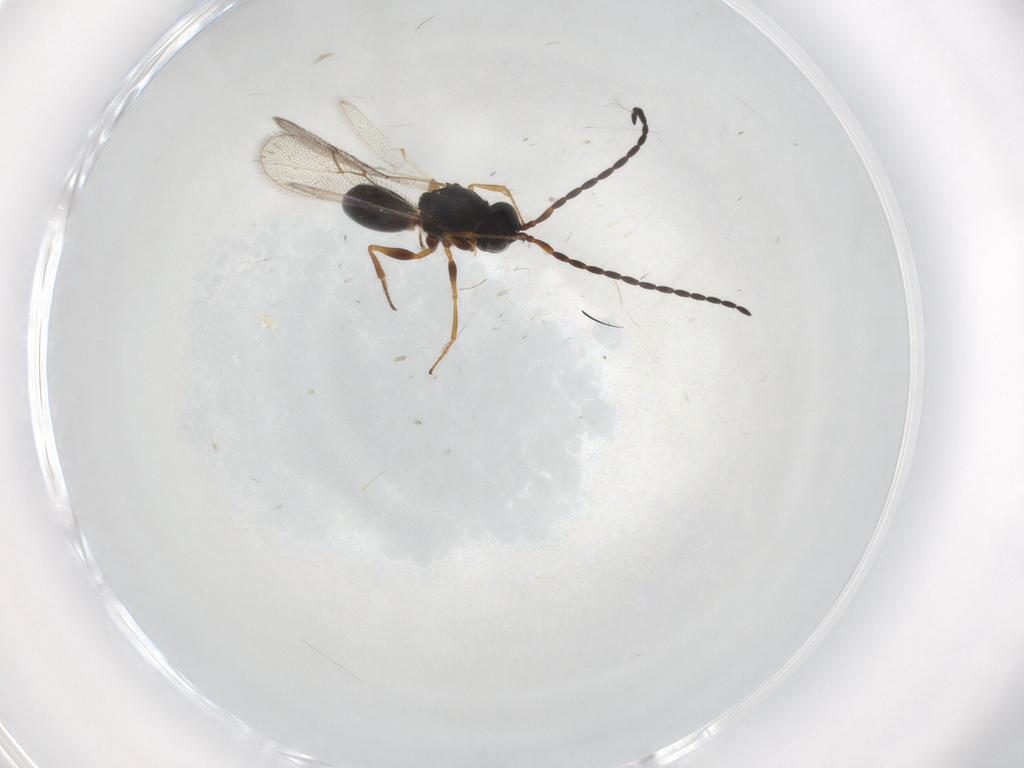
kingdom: Animalia
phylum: Arthropoda
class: Insecta
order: Hymenoptera
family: Figitidae
